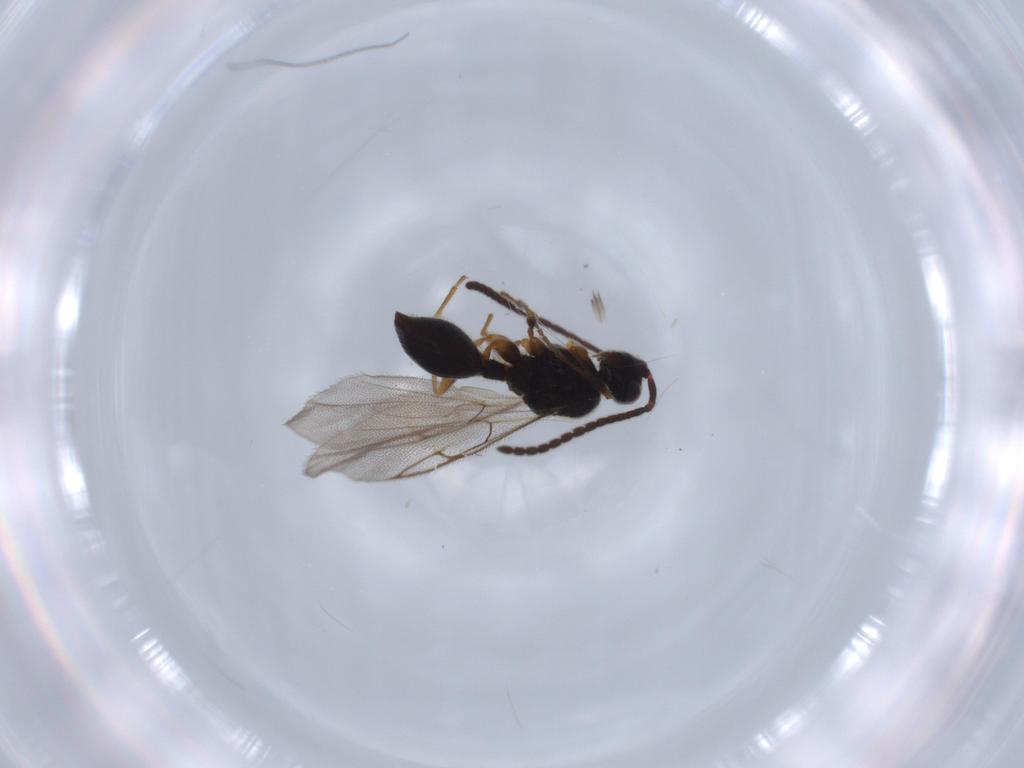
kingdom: Animalia
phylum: Arthropoda
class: Insecta
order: Hymenoptera
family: Diapriidae
